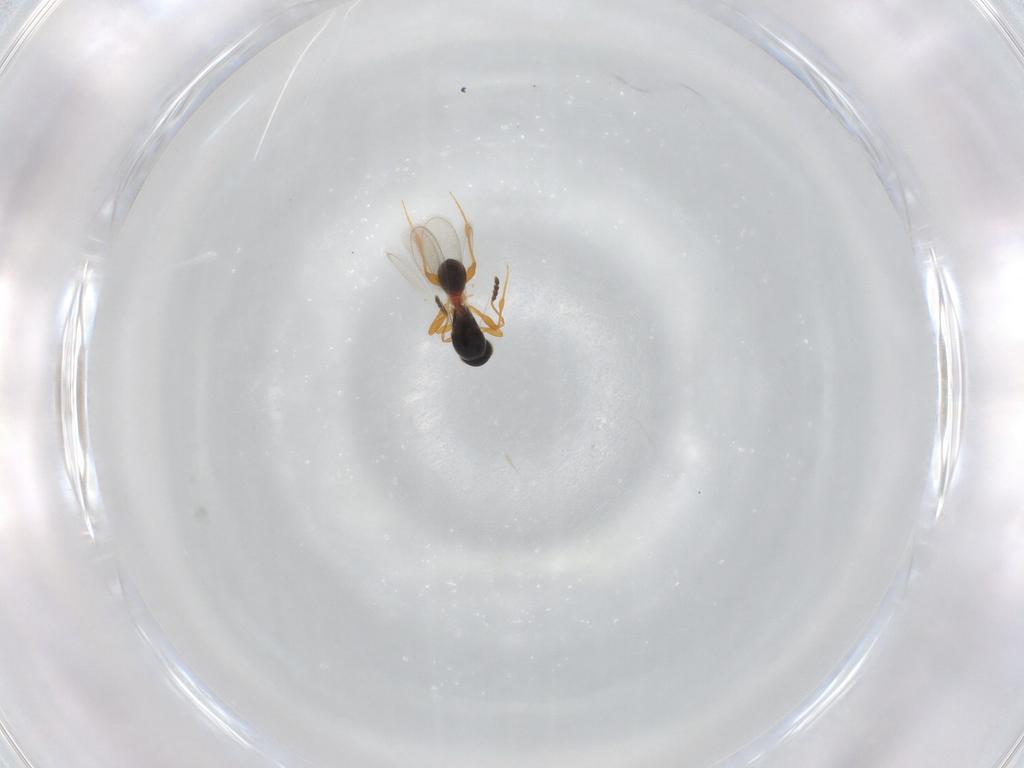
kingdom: Animalia
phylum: Arthropoda
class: Insecta
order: Hymenoptera
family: Platygastridae
